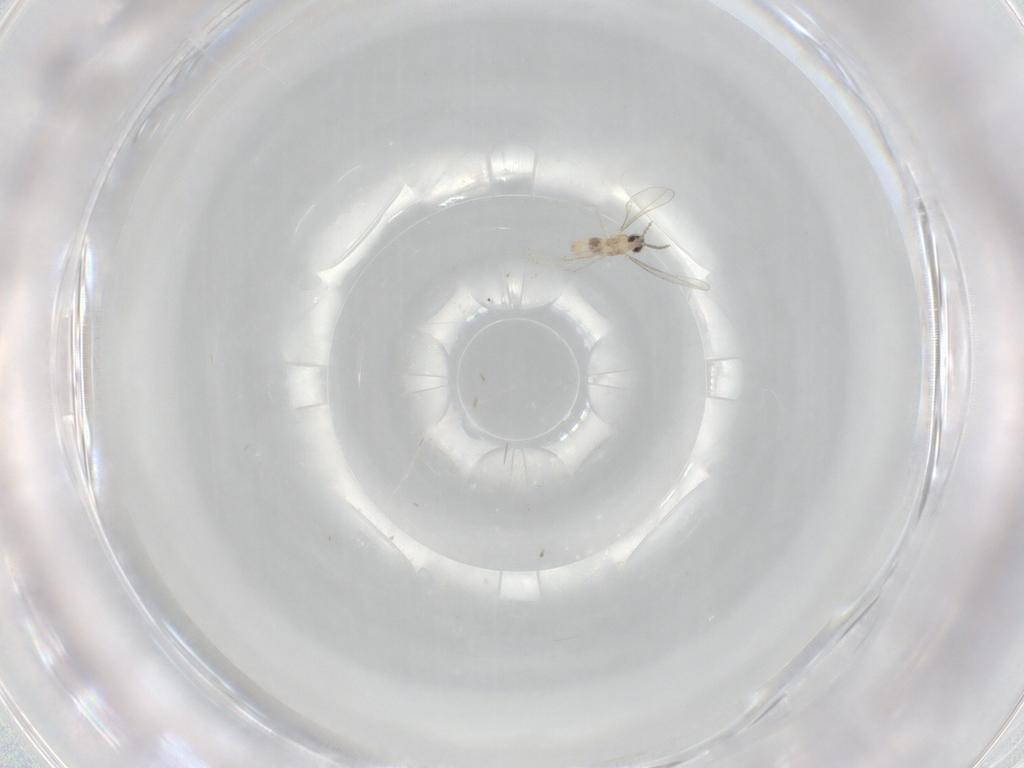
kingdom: Animalia
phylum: Arthropoda
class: Insecta
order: Diptera
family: Cecidomyiidae
